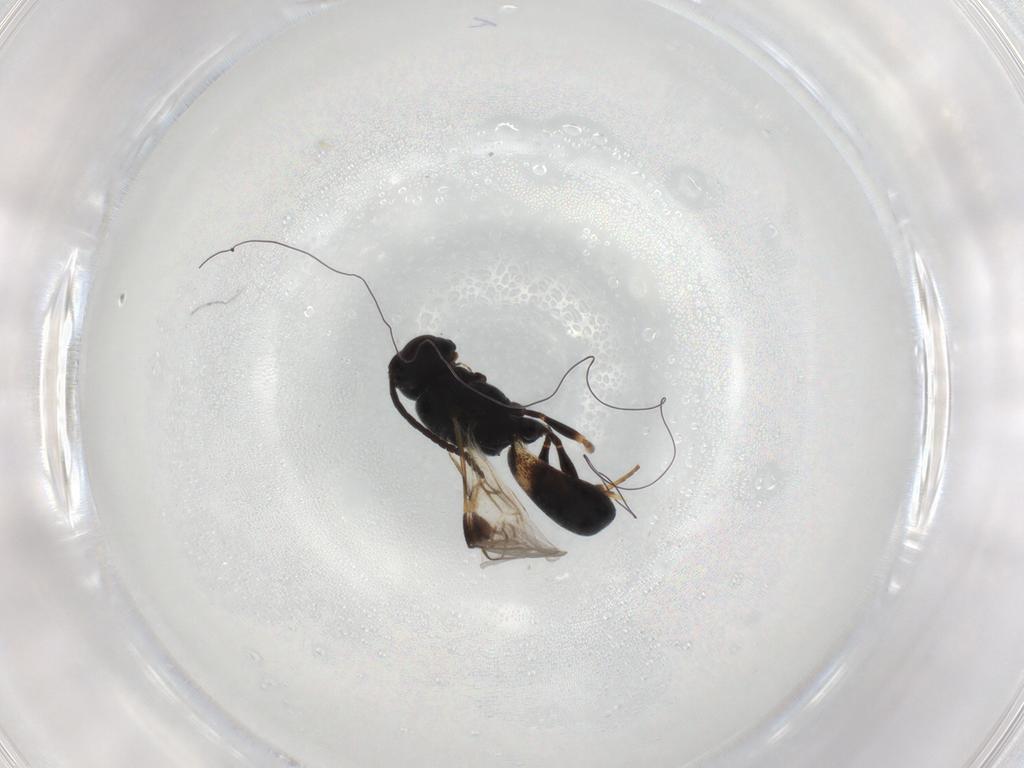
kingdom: Animalia
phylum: Arthropoda
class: Insecta
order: Hymenoptera
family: Braconidae
